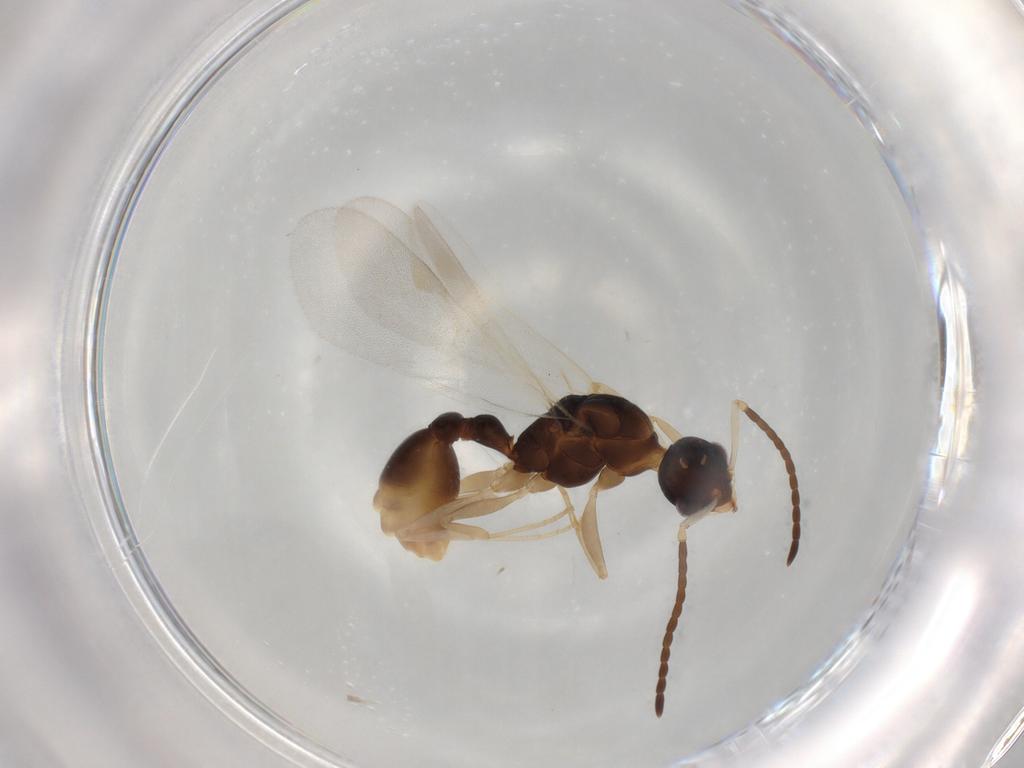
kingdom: Animalia
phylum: Arthropoda
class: Insecta
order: Hymenoptera
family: Formicidae
